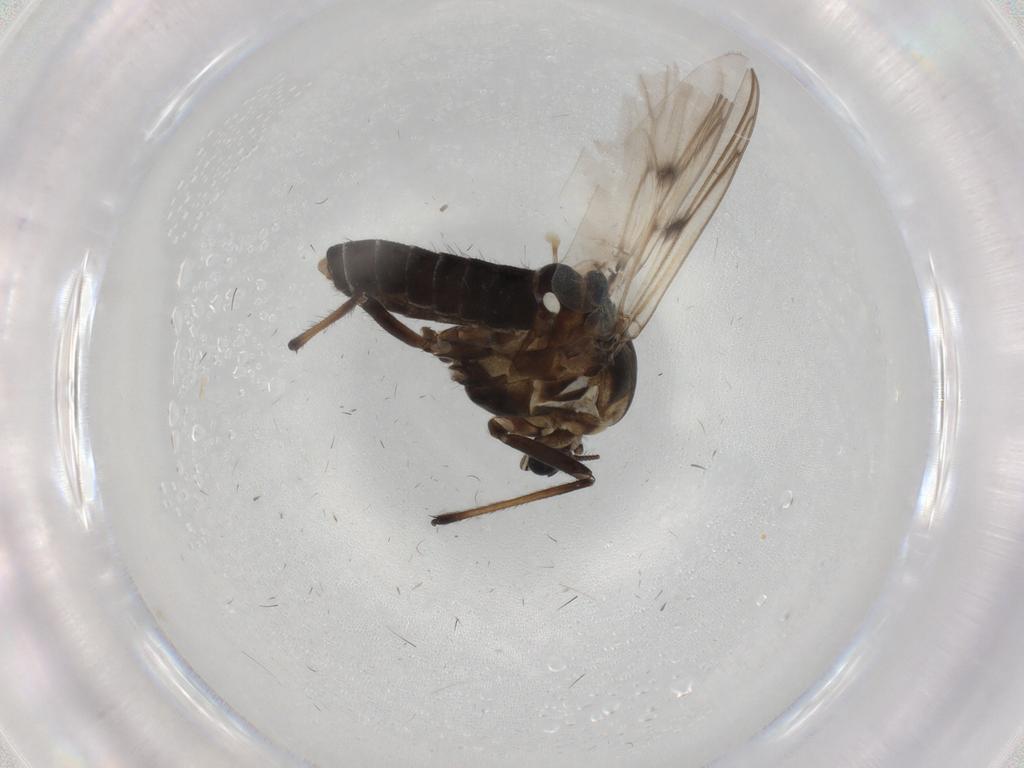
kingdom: Animalia
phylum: Arthropoda
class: Insecta
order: Diptera
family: Chironomidae
